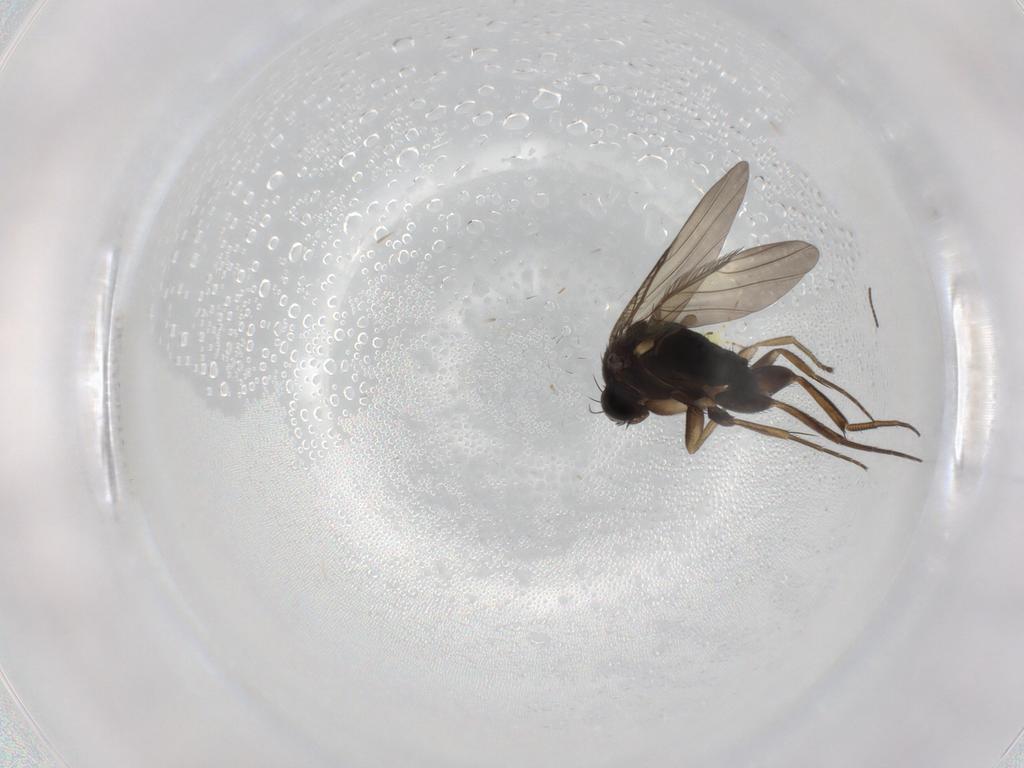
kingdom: Animalia
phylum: Arthropoda
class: Insecta
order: Diptera
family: Phoridae
